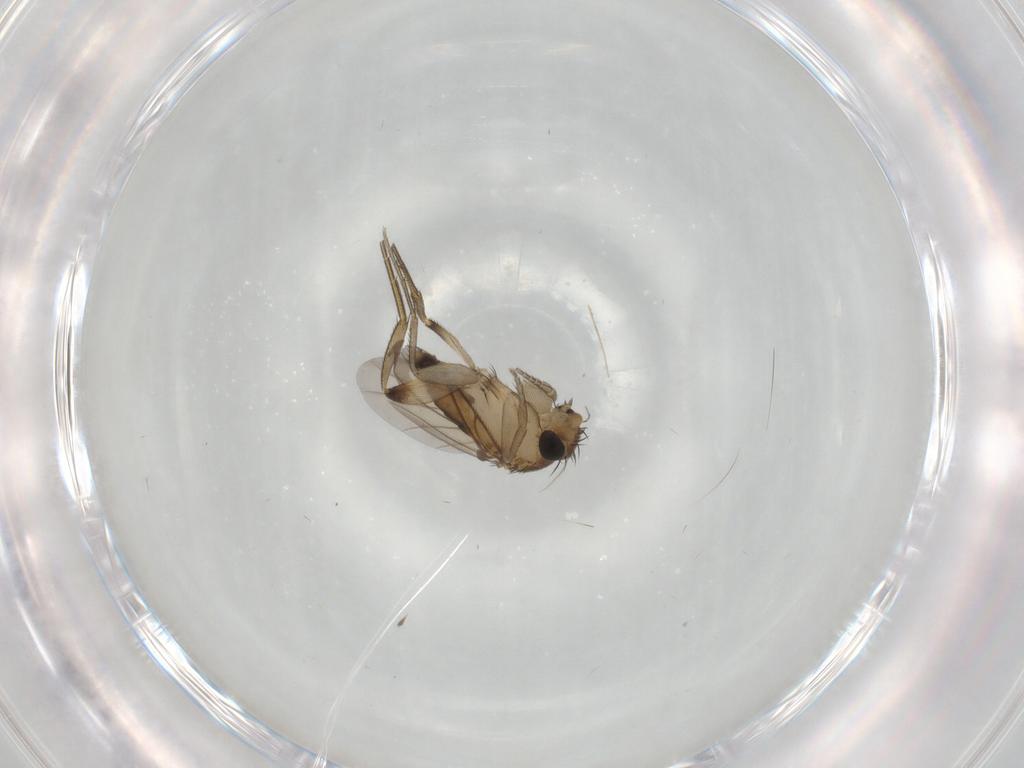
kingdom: Animalia
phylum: Arthropoda
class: Insecta
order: Diptera
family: Phoridae
